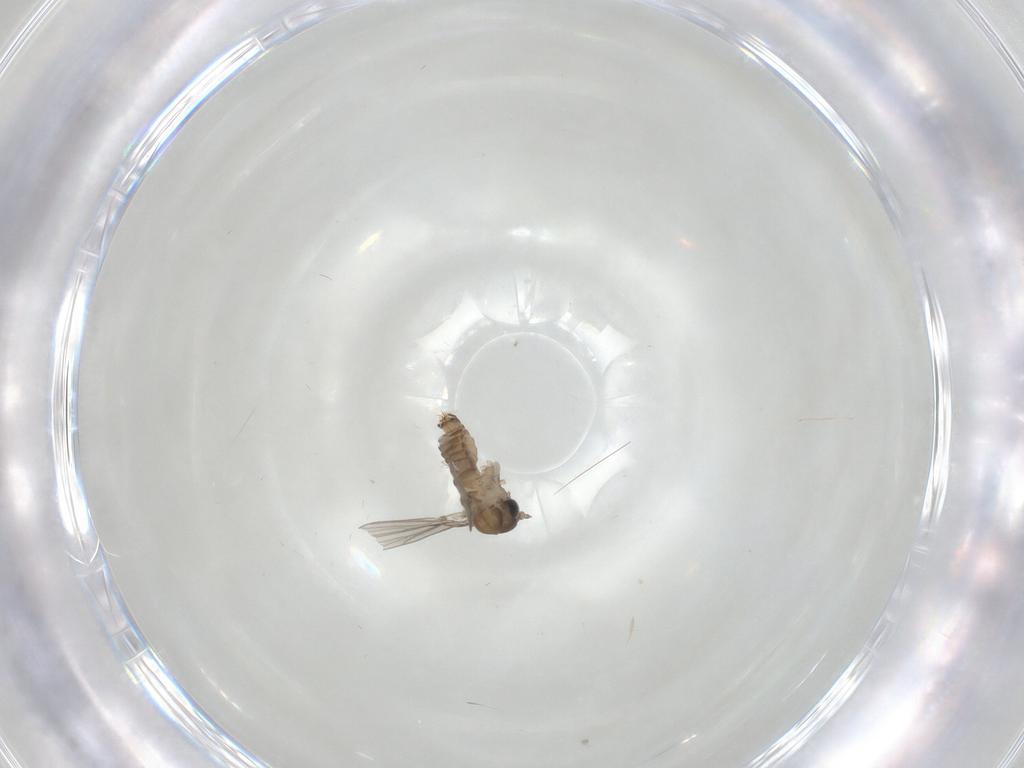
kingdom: Animalia
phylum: Arthropoda
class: Insecta
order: Diptera
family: Psychodidae
